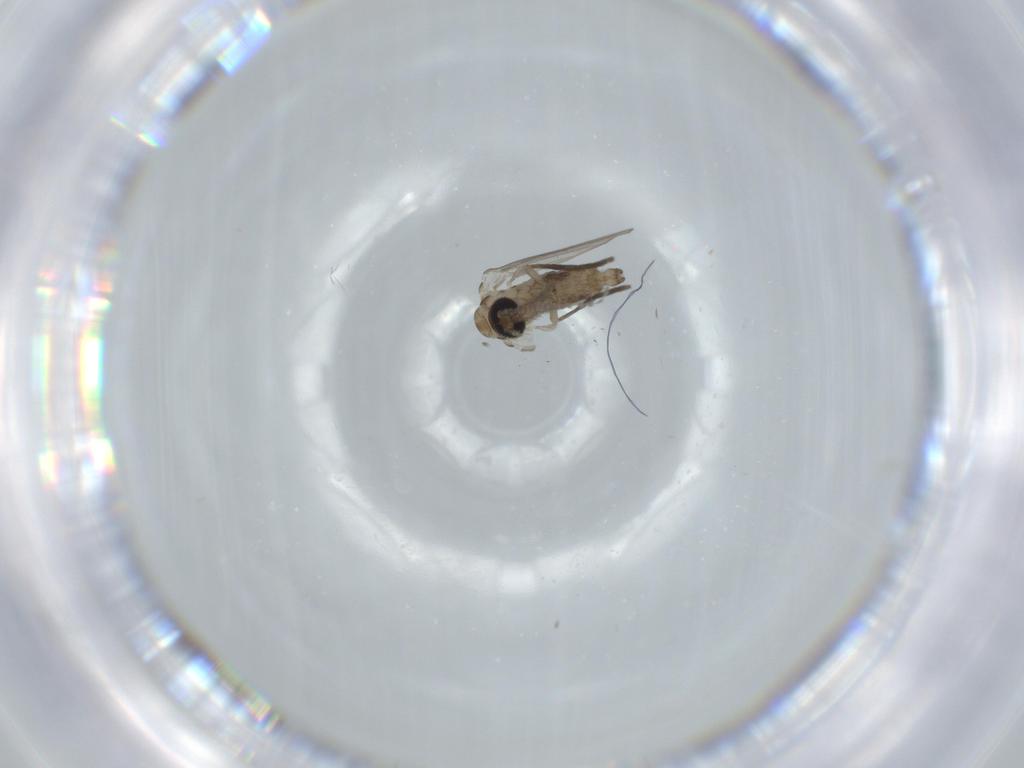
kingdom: Animalia
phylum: Arthropoda
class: Insecta
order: Diptera
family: Psychodidae
